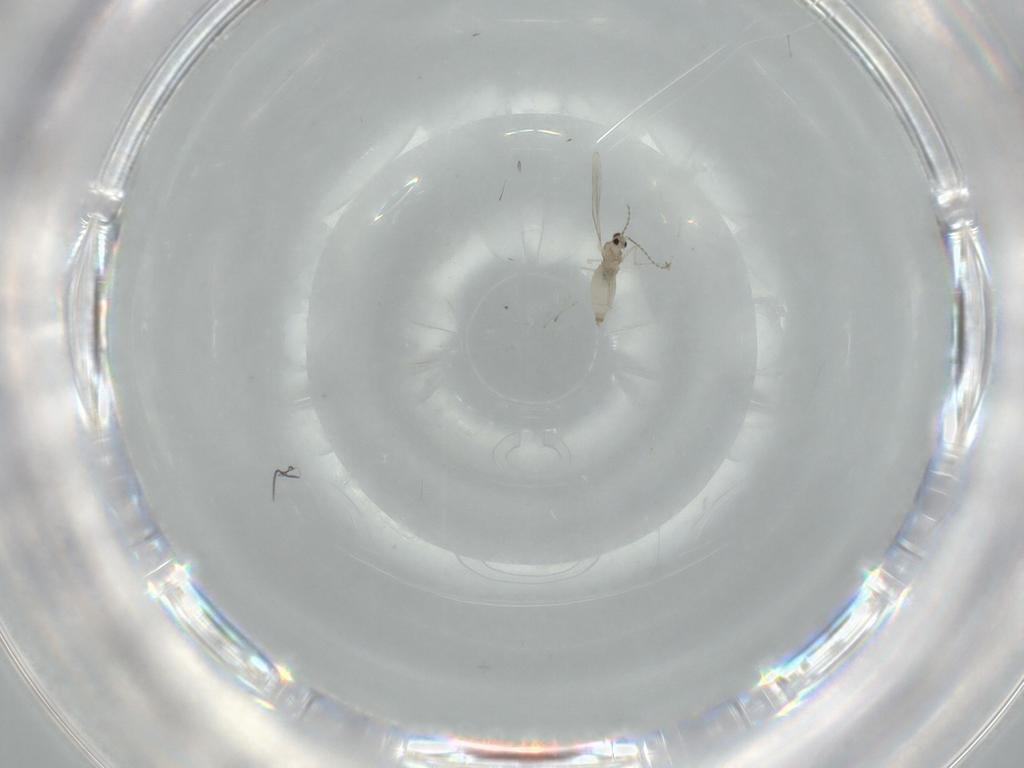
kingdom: Animalia
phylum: Arthropoda
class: Insecta
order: Diptera
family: Cecidomyiidae
